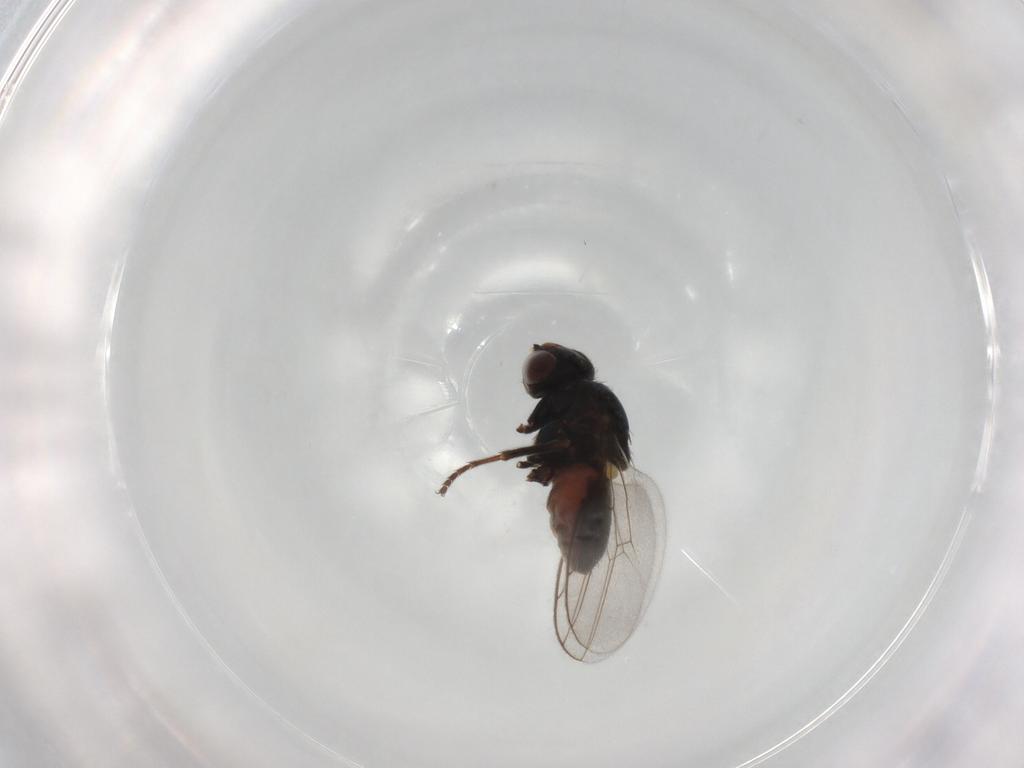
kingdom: Animalia
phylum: Arthropoda
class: Insecta
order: Diptera
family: Chloropidae
